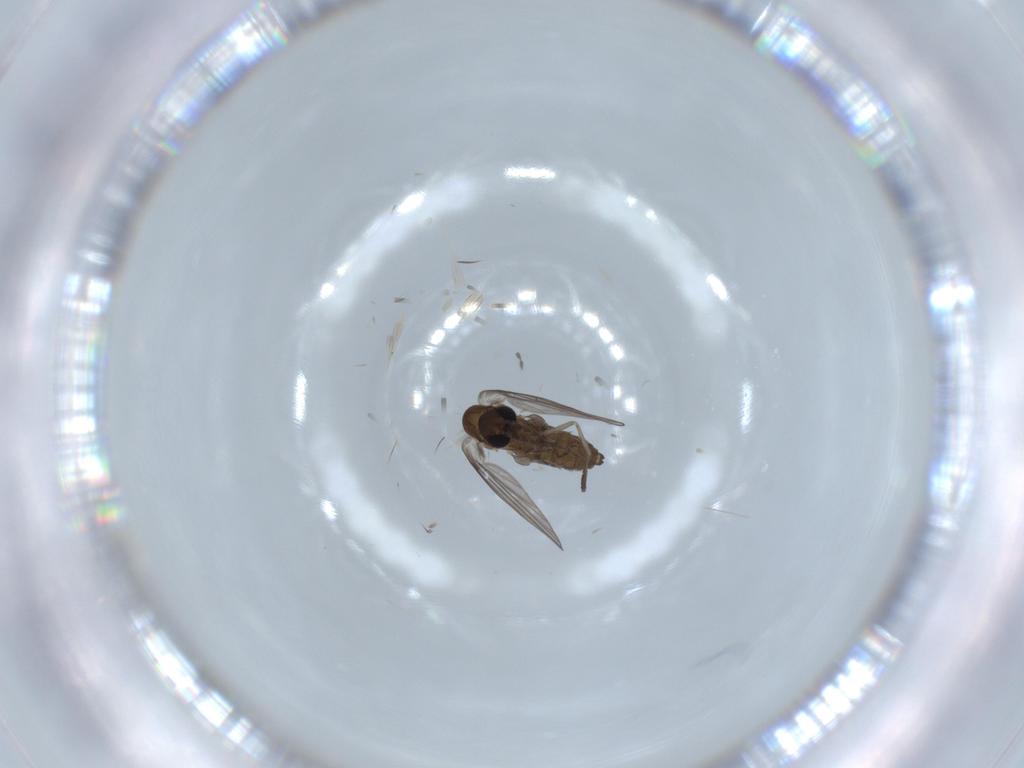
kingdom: Animalia
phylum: Arthropoda
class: Insecta
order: Diptera
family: Psychodidae
